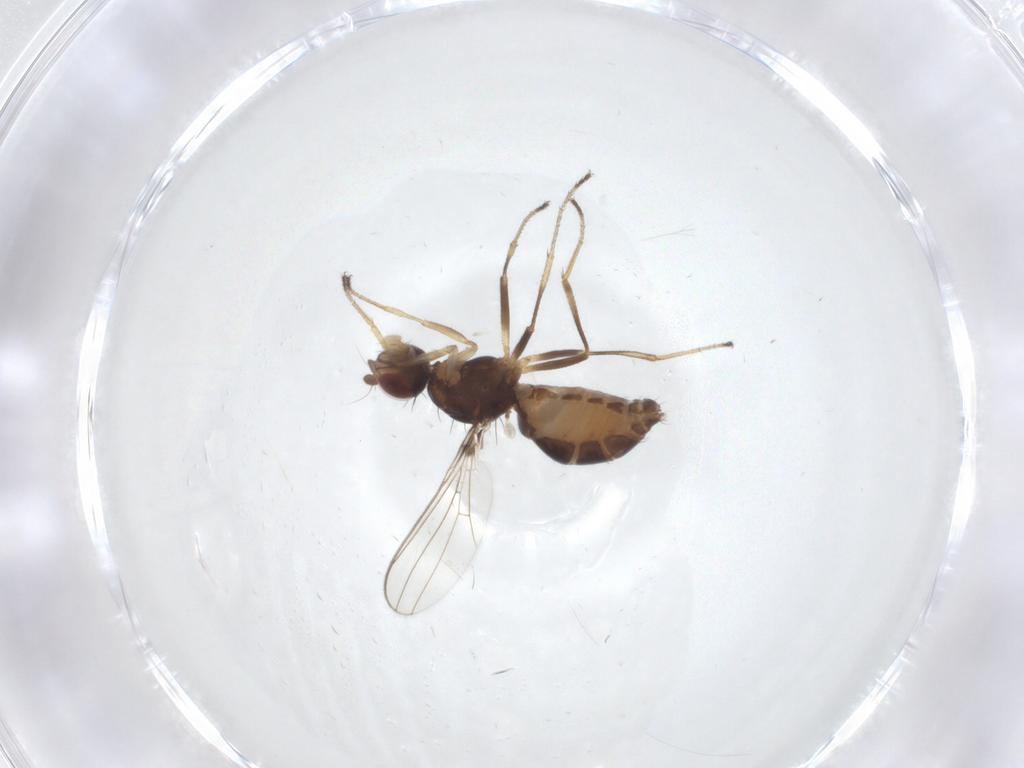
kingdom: Animalia
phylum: Arthropoda
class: Insecta
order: Diptera
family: Sepsidae
